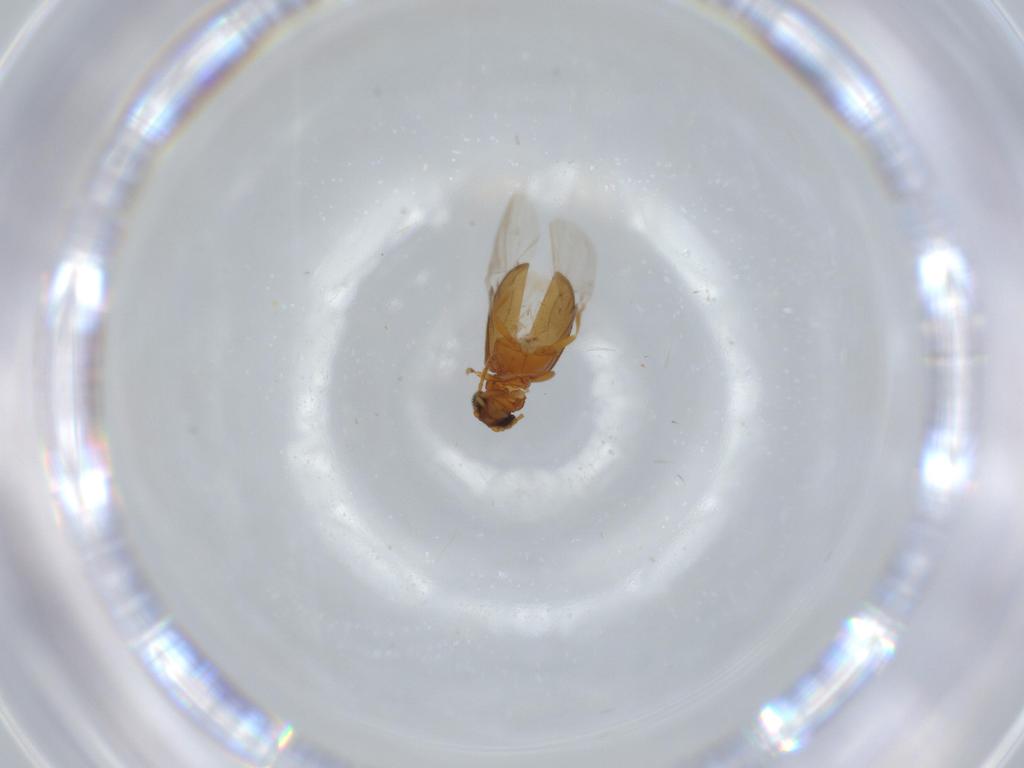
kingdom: Animalia
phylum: Arthropoda
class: Insecta
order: Coleoptera
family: Aderidae
